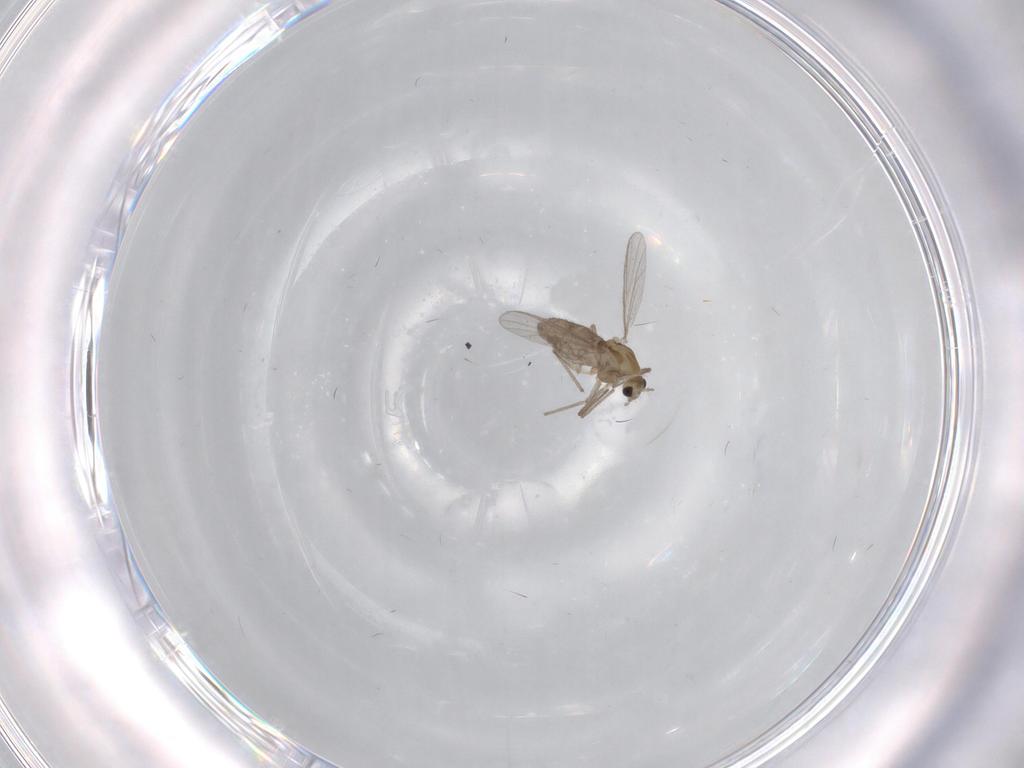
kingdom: Animalia
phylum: Arthropoda
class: Insecta
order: Diptera
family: Chironomidae
